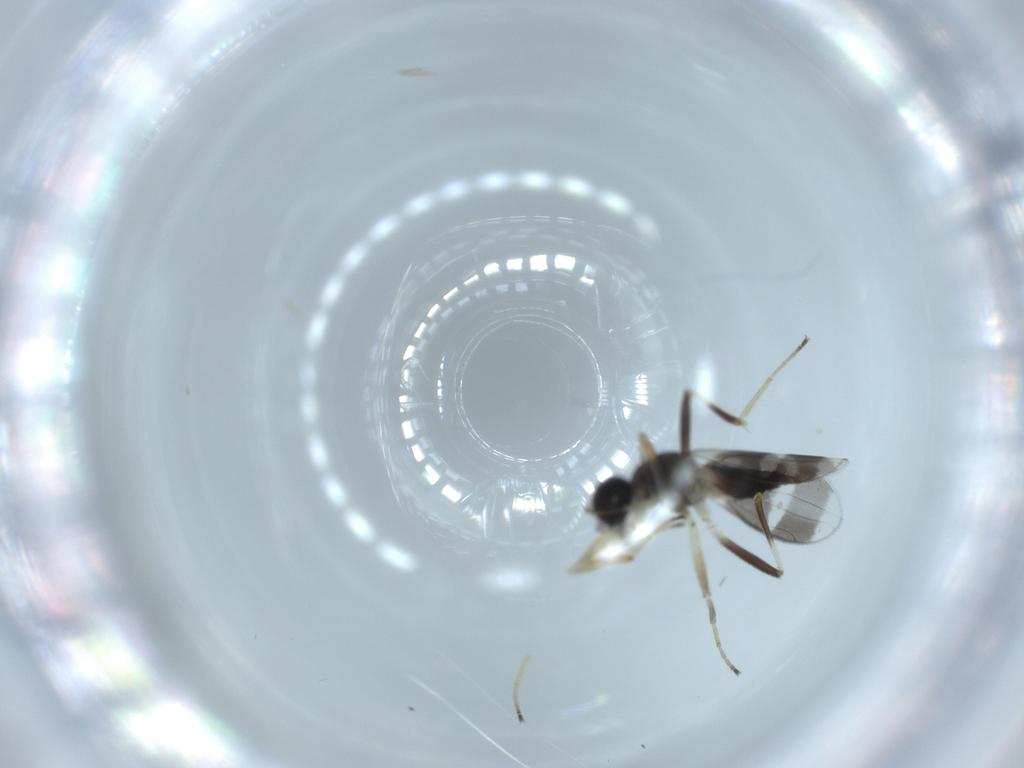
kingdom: Animalia
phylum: Arthropoda
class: Insecta
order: Diptera
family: Hybotidae
